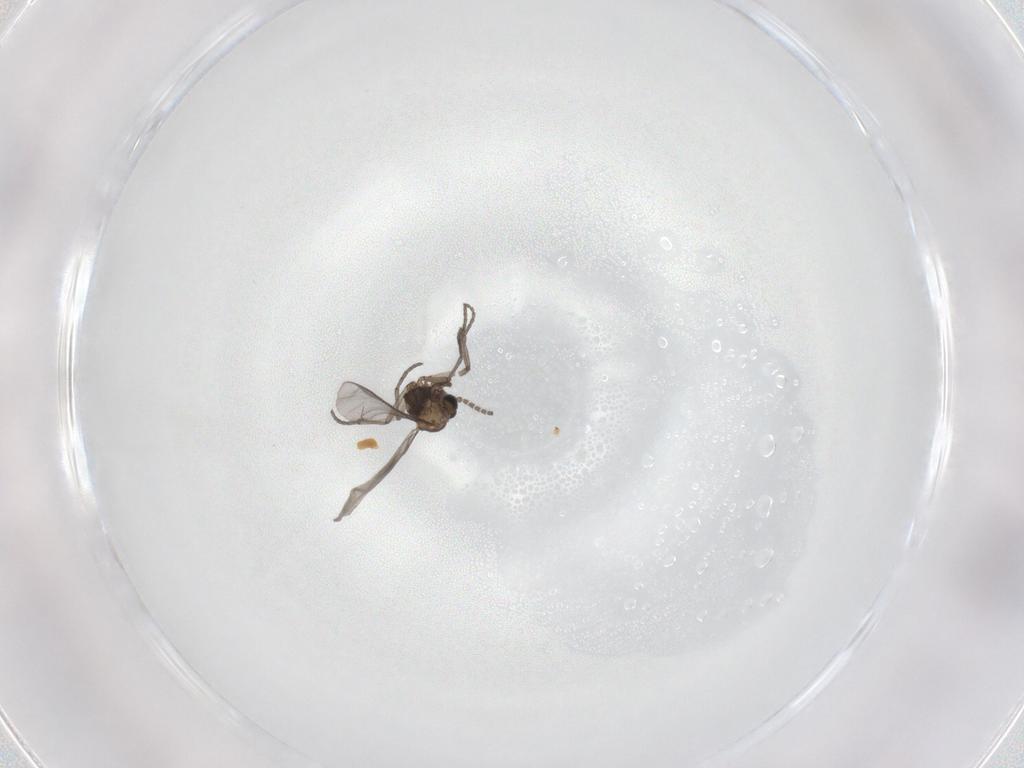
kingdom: Animalia
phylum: Arthropoda
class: Insecta
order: Diptera
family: Sciaridae
